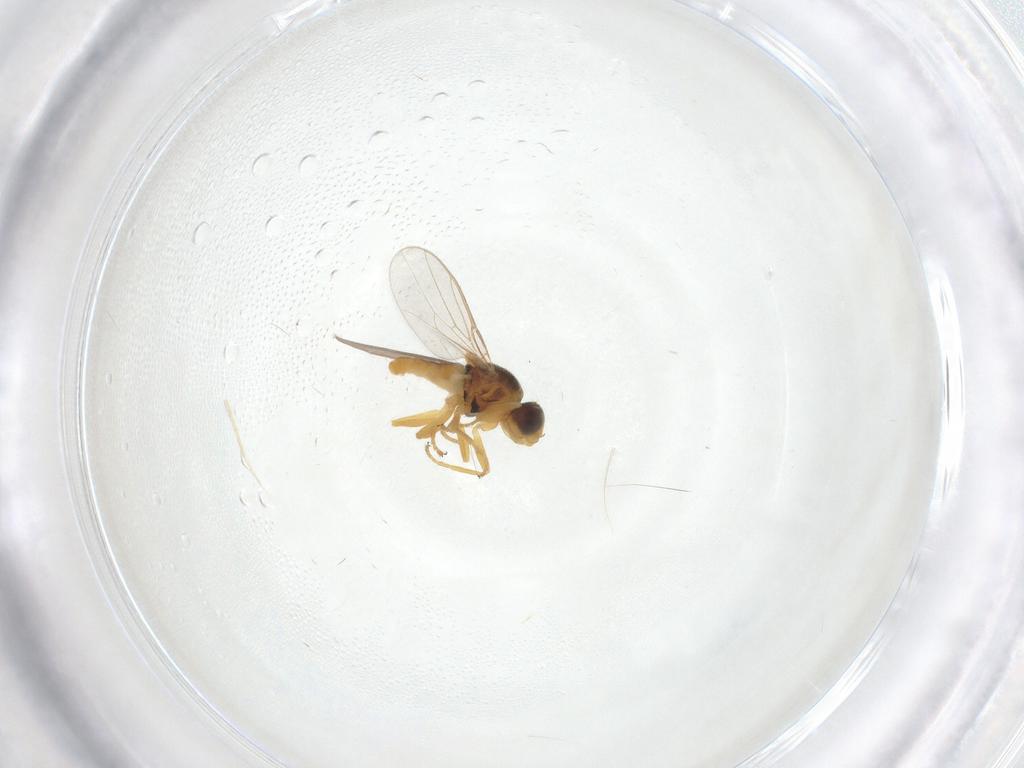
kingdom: Animalia
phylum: Arthropoda
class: Insecta
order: Diptera
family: Chloropidae
